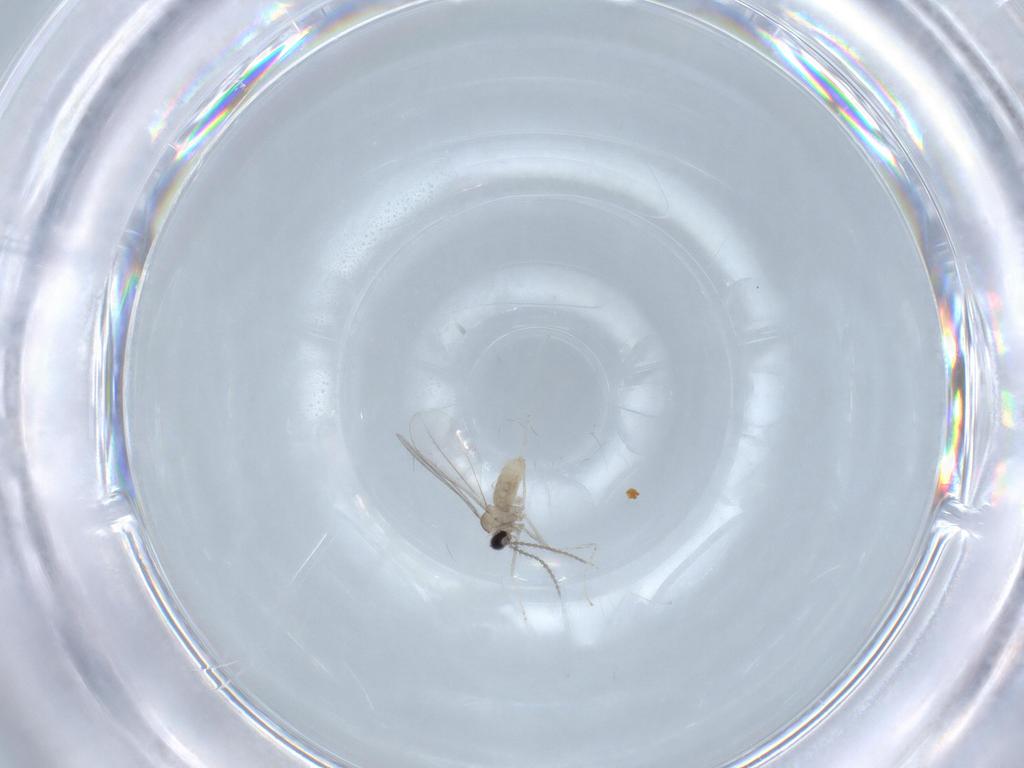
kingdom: Animalia
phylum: Arthropoda
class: Insecta
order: Diptera
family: Cecidomyiidae
